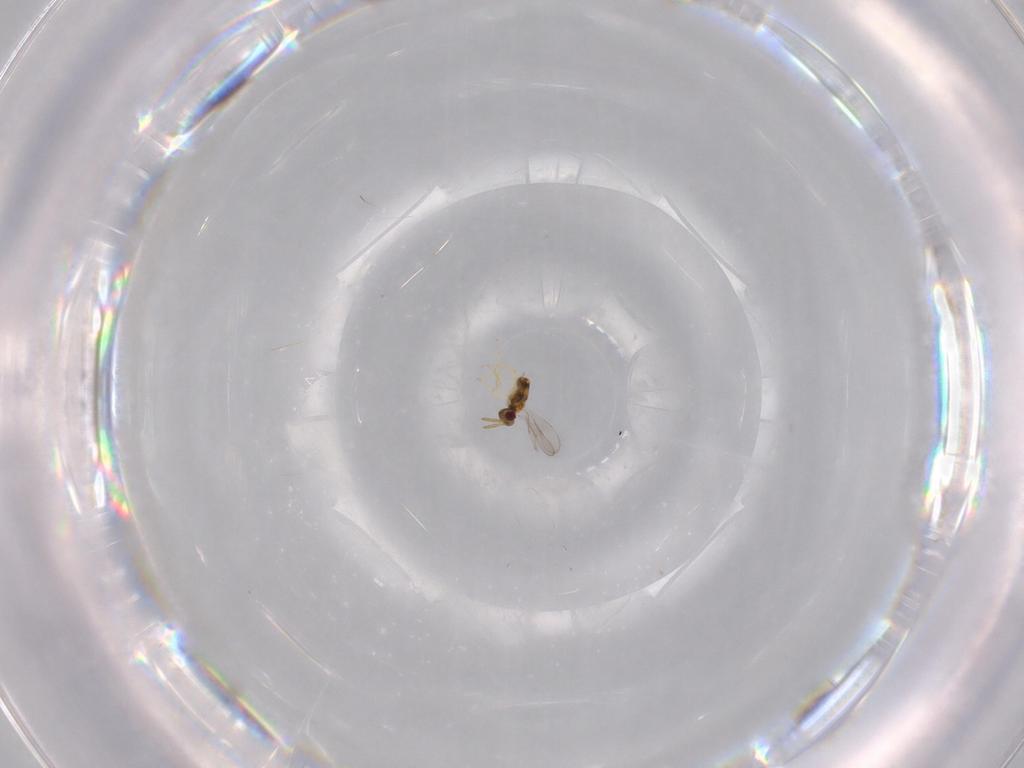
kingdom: Animalia
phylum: Arthropoda
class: Insecta
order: Hymenoptera
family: Aphelinidae
